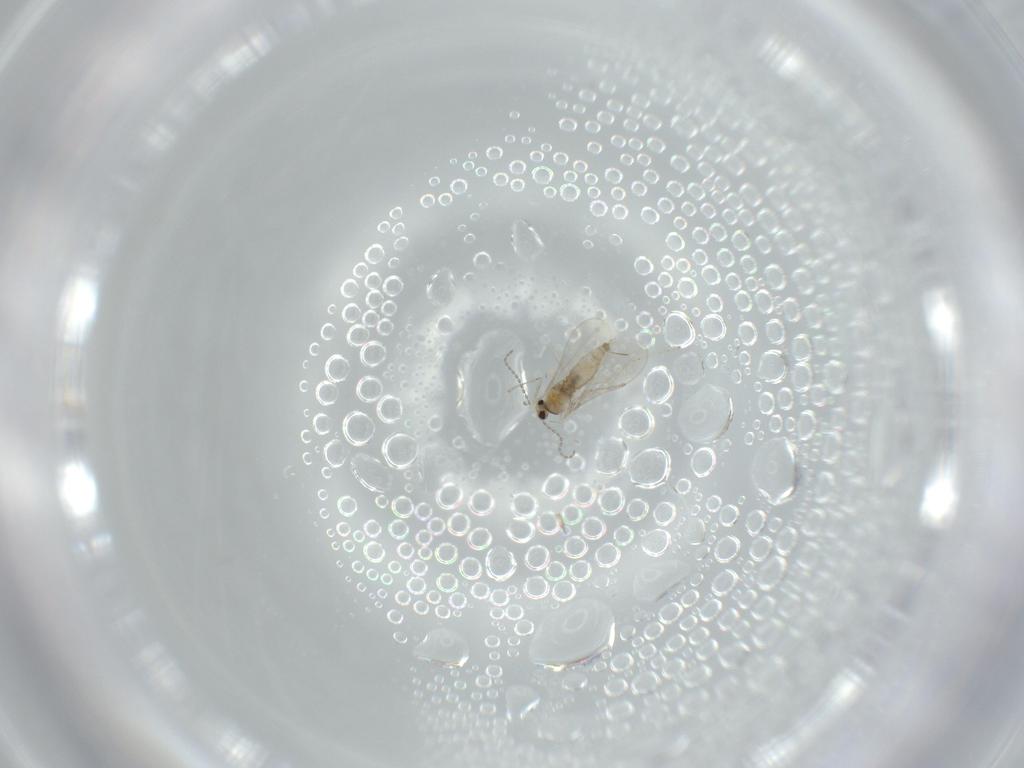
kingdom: Animalia
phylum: Arthropoda
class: Insecta
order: Diptera
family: Cecidomyiidae
